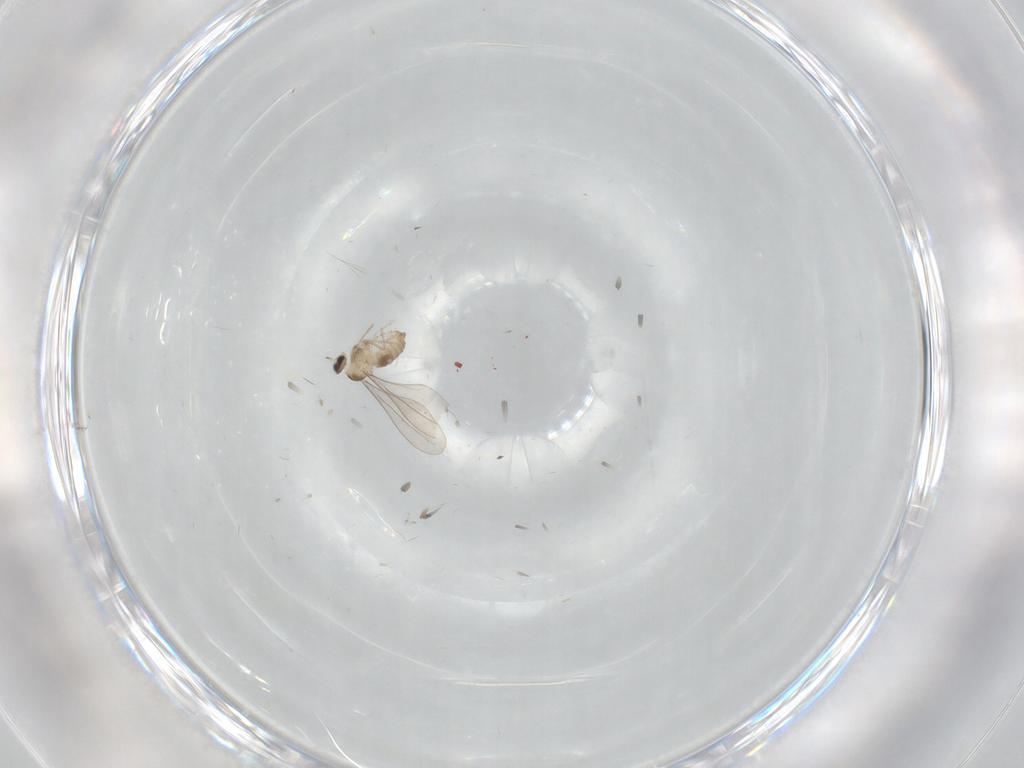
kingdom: Animalia
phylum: Arthropoda
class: Insecta
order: Diptera
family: Cecidomyiidae
